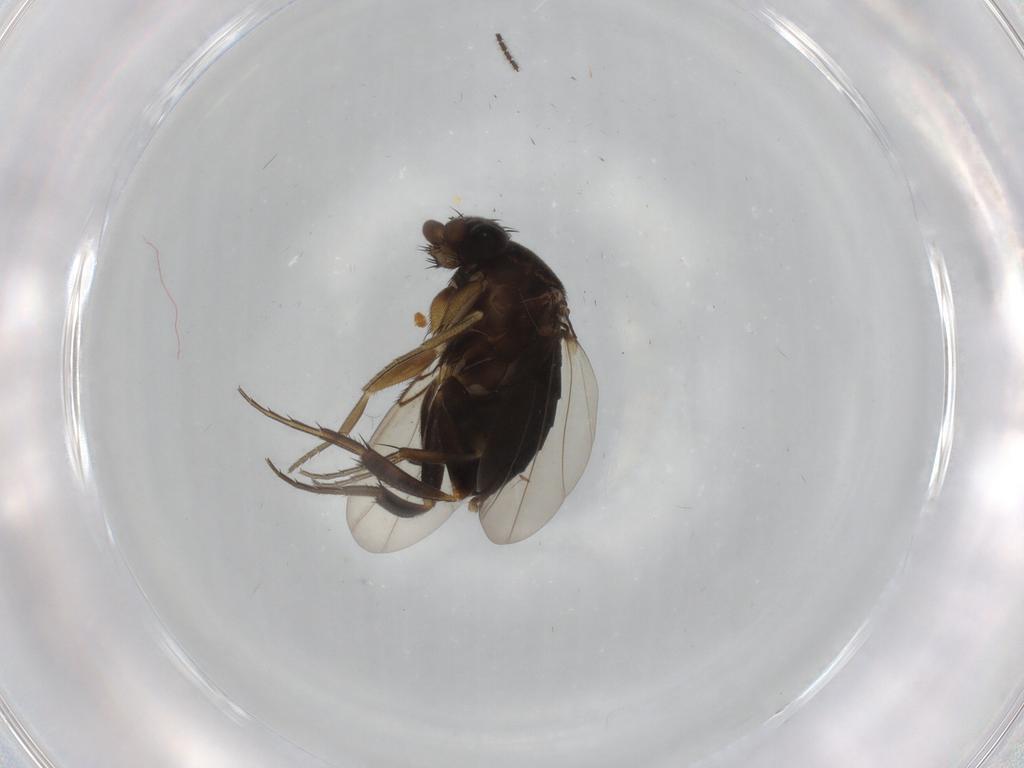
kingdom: Animalia
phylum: Arthropoda
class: Insecta
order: Diptera
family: Phoridae
